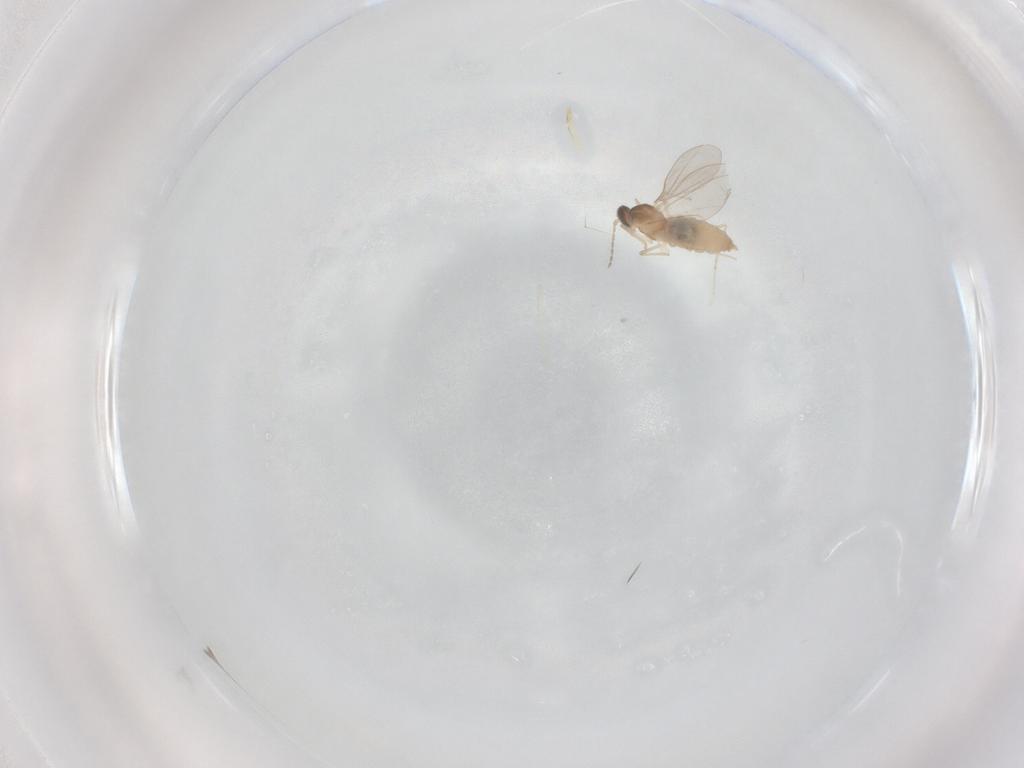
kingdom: Animalia
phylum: Arthropoda
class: Insecta
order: Diptera
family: Cecidomyiidae
